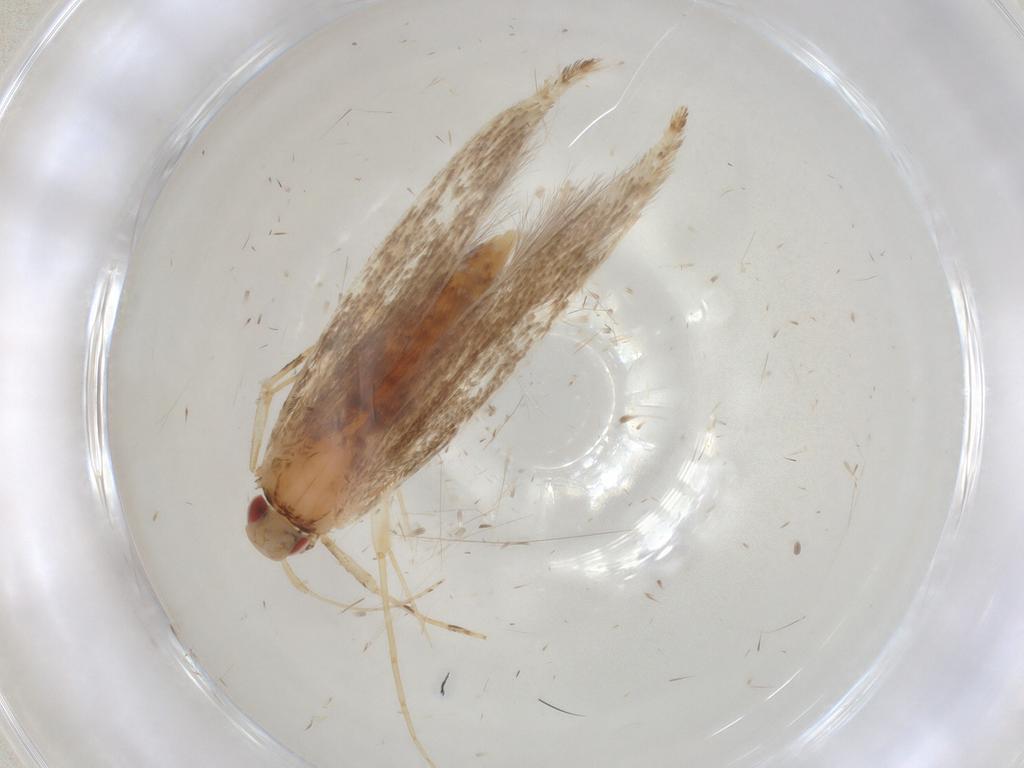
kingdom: Animalia
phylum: Arthropoda
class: Insecta
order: Lepidoptera
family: Cosmopterigidae
